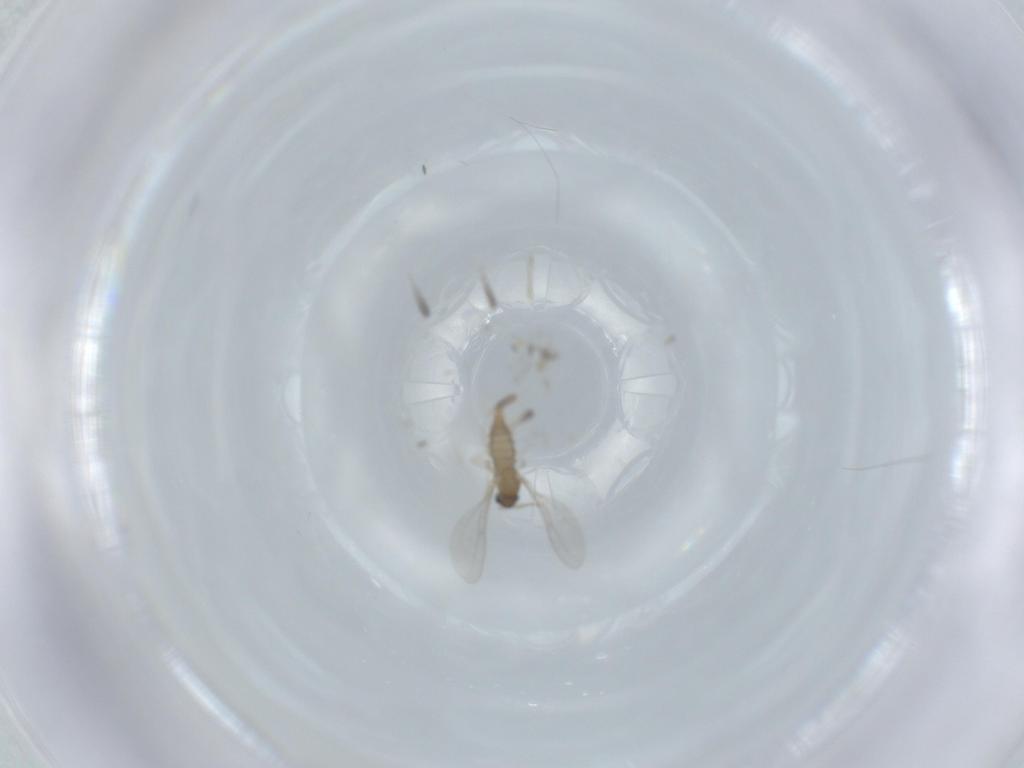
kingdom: Animalia
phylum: Arthropoda
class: Insecta
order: Diptera
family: Cecidomyiidae
